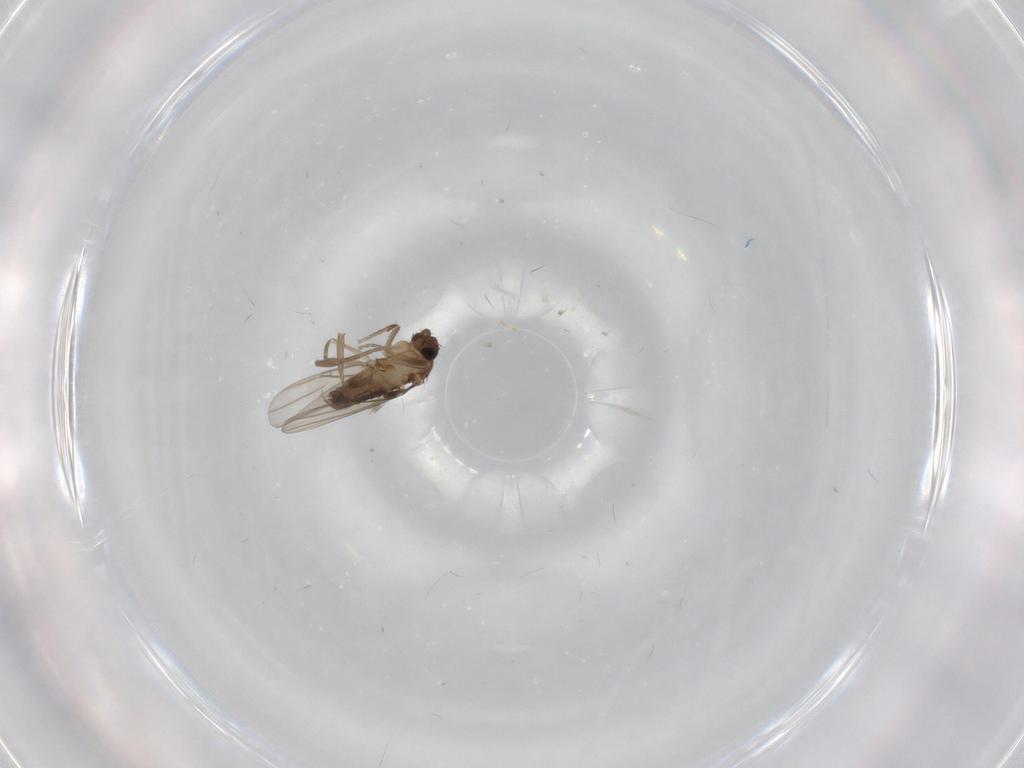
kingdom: Animalia
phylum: Arthropoda
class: Insecta
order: Diptera
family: Phoridae
